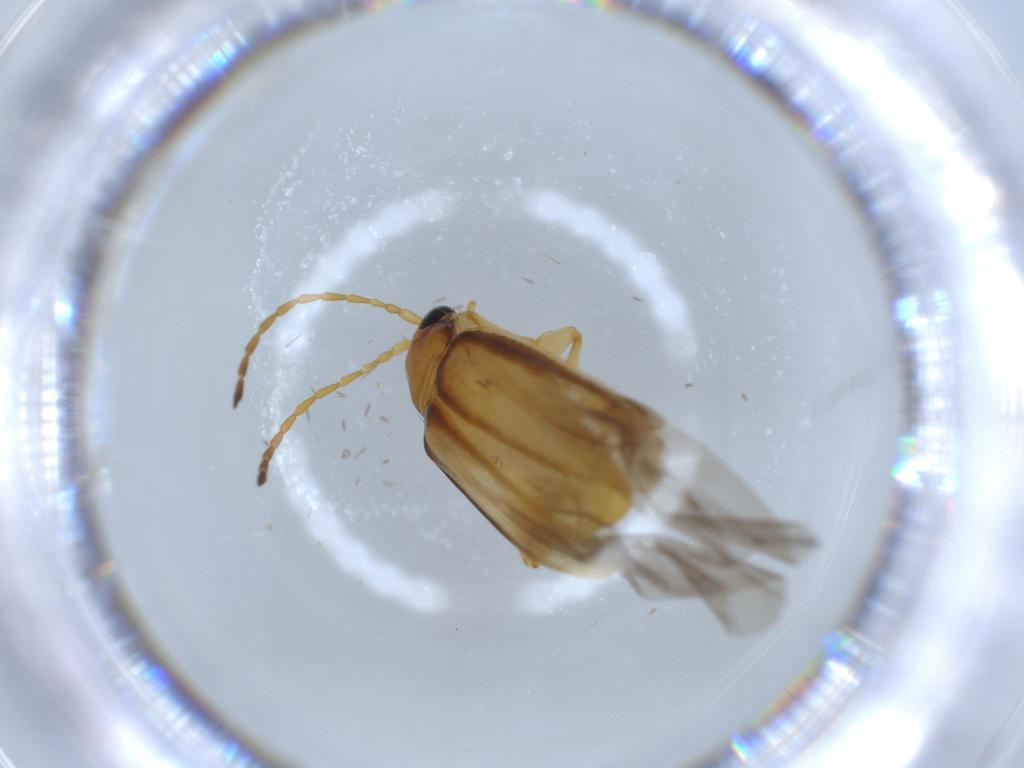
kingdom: Animalia
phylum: Arthropoda
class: Insecta
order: Coleoptera
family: Chrysomelidae
